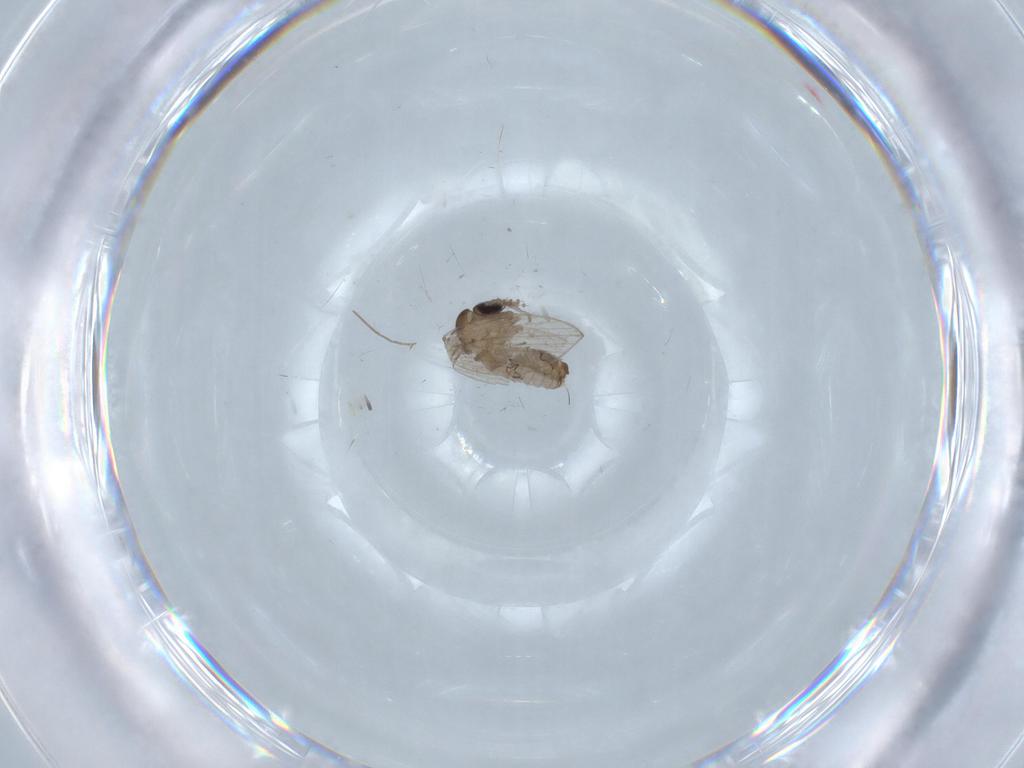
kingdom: Animalia
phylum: Arthropoda
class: Insecta
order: Diptera
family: Psychodidae
